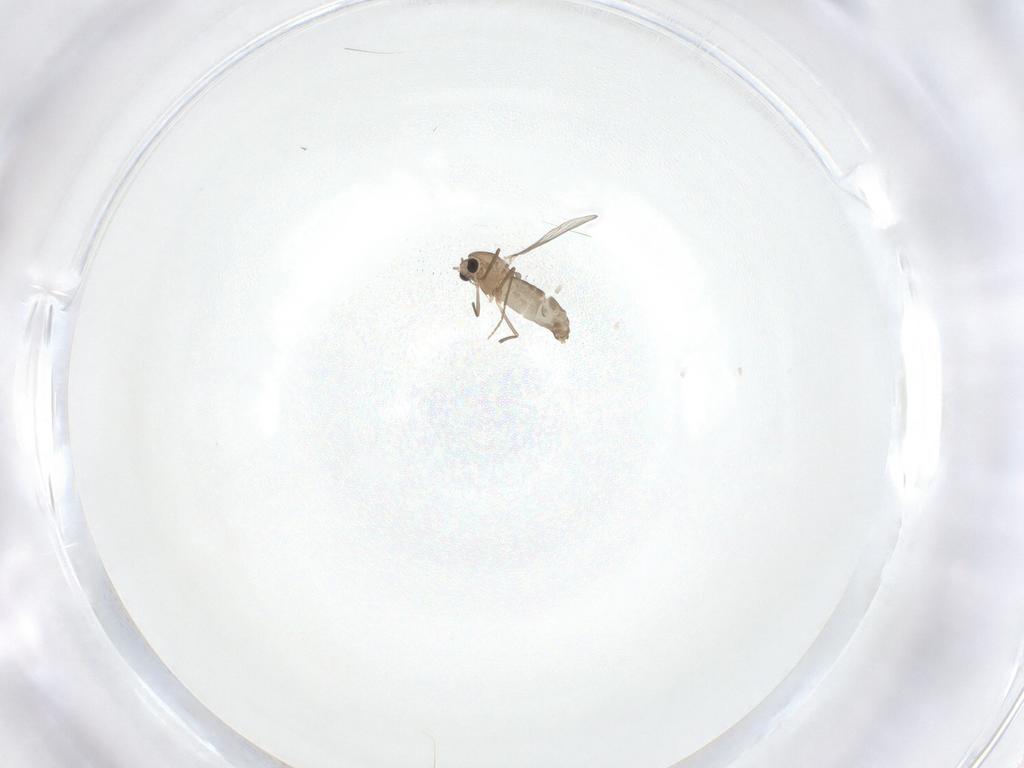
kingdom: Animalia
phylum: Arthropoda
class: Insecta
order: Diptera
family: Chironomidae
